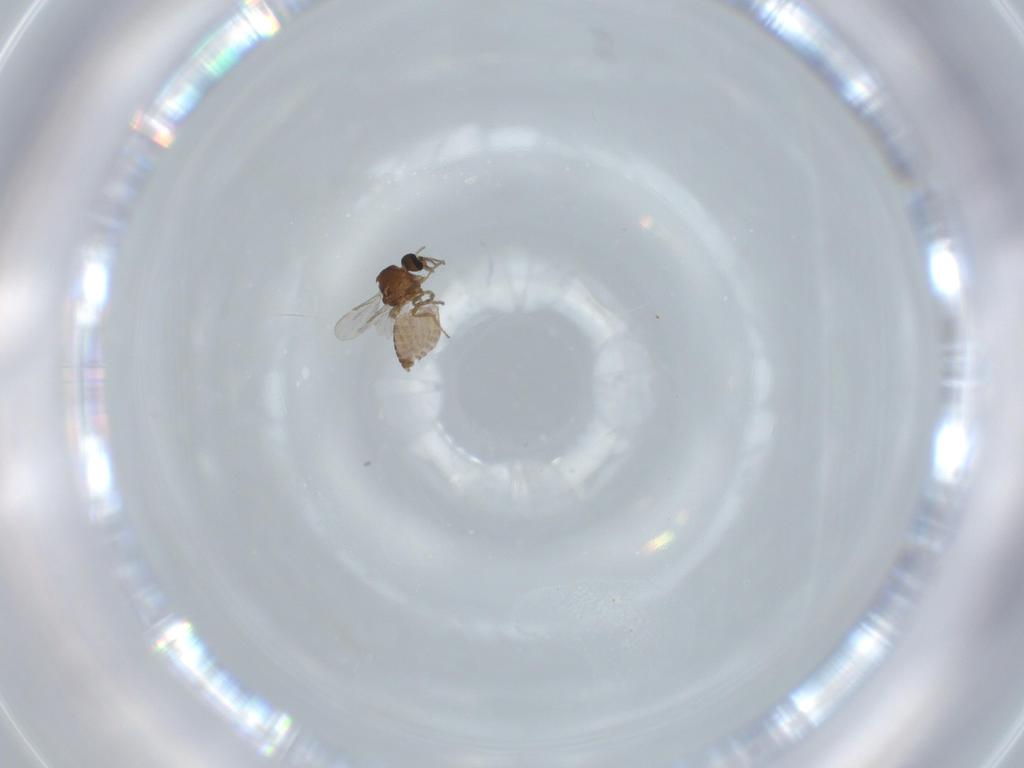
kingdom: Animalia
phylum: Arthropoda
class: Insecta
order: Diptera
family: Ceratopogonidae
